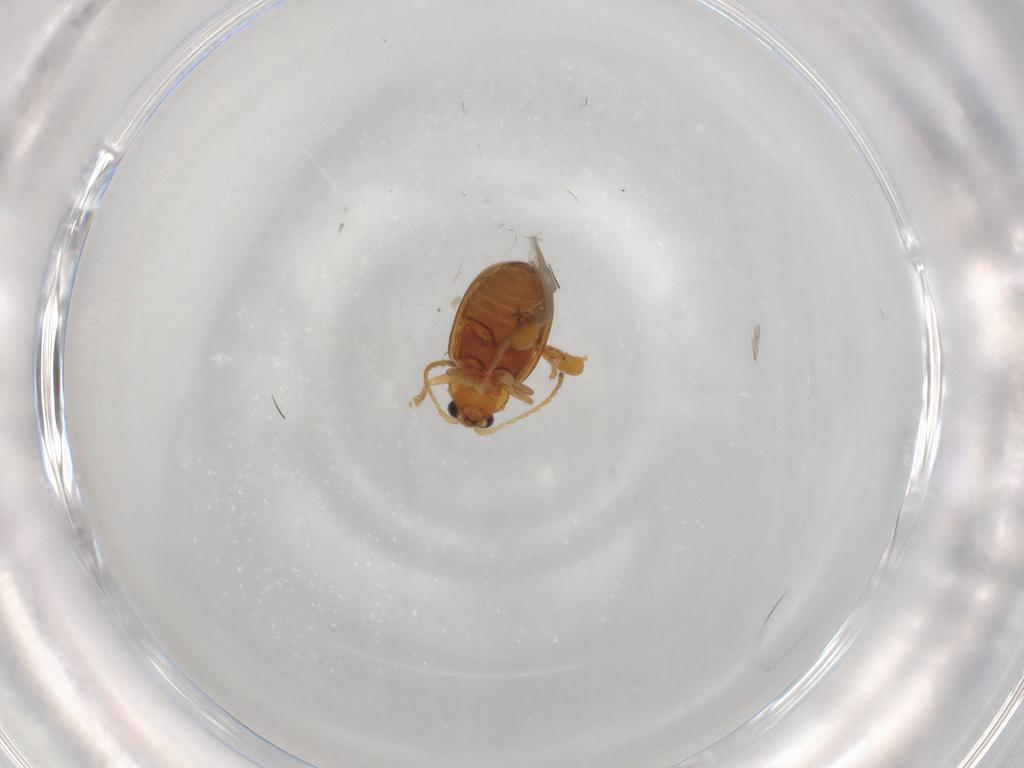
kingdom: Animalia
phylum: Arthropoda
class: Insecta
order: Coleoptera
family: Chrysomelidae
